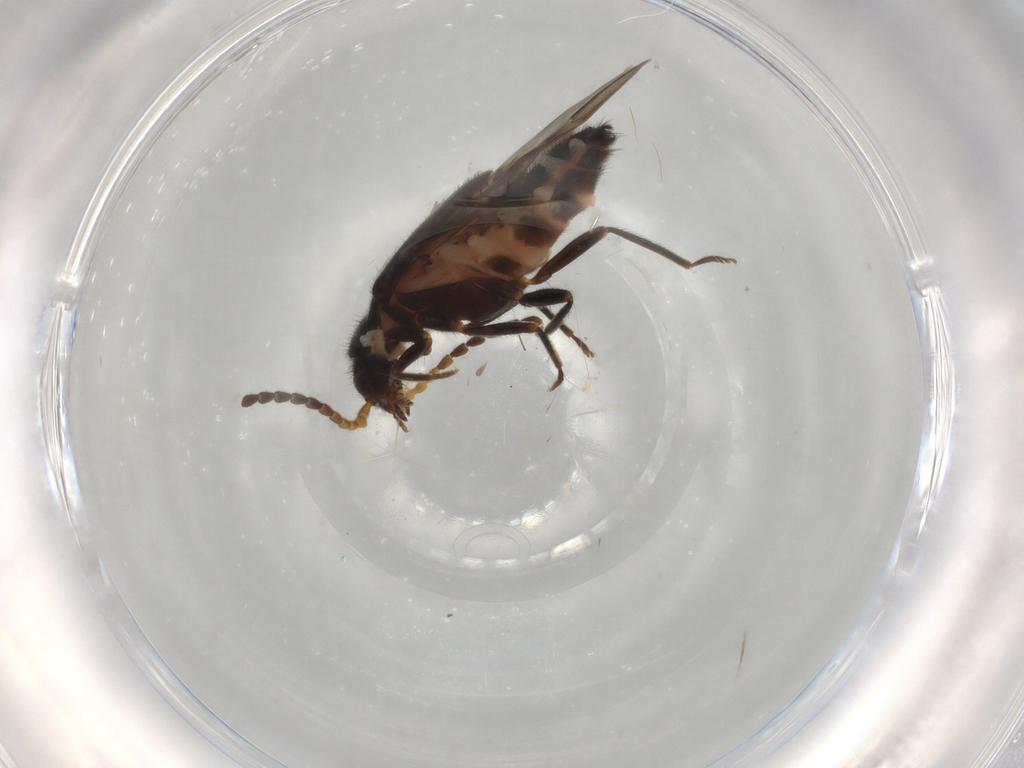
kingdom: Animalia
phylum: Arthropoda
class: Insecta
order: Coleoptera
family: Melyridae
